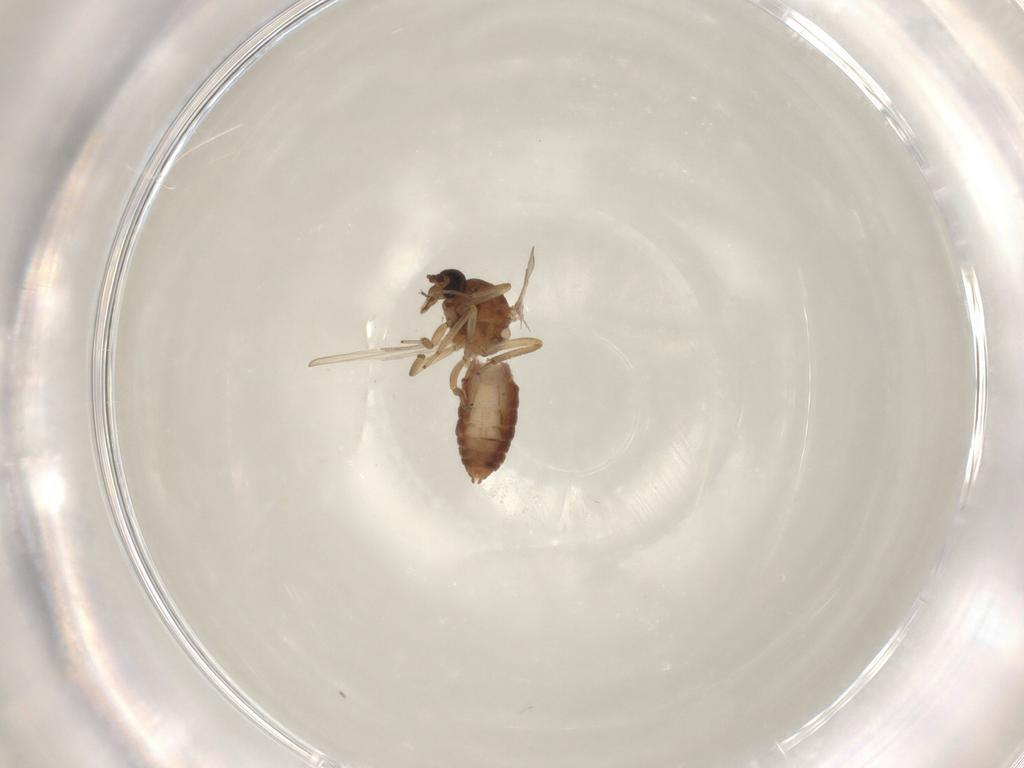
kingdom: Animalia
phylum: Arthropoda
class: Insecta
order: Diptera
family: Ceratopogonidae
